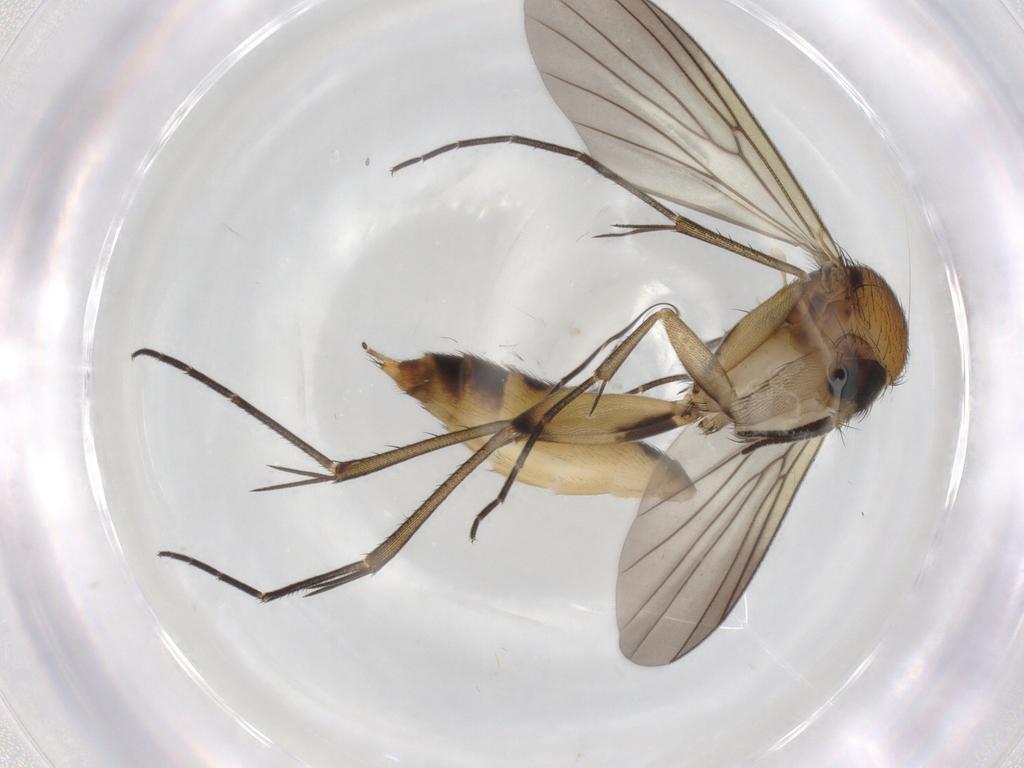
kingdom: Animalia
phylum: Arthropoda
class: Insecta
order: Diptera
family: Mycetophilidae
